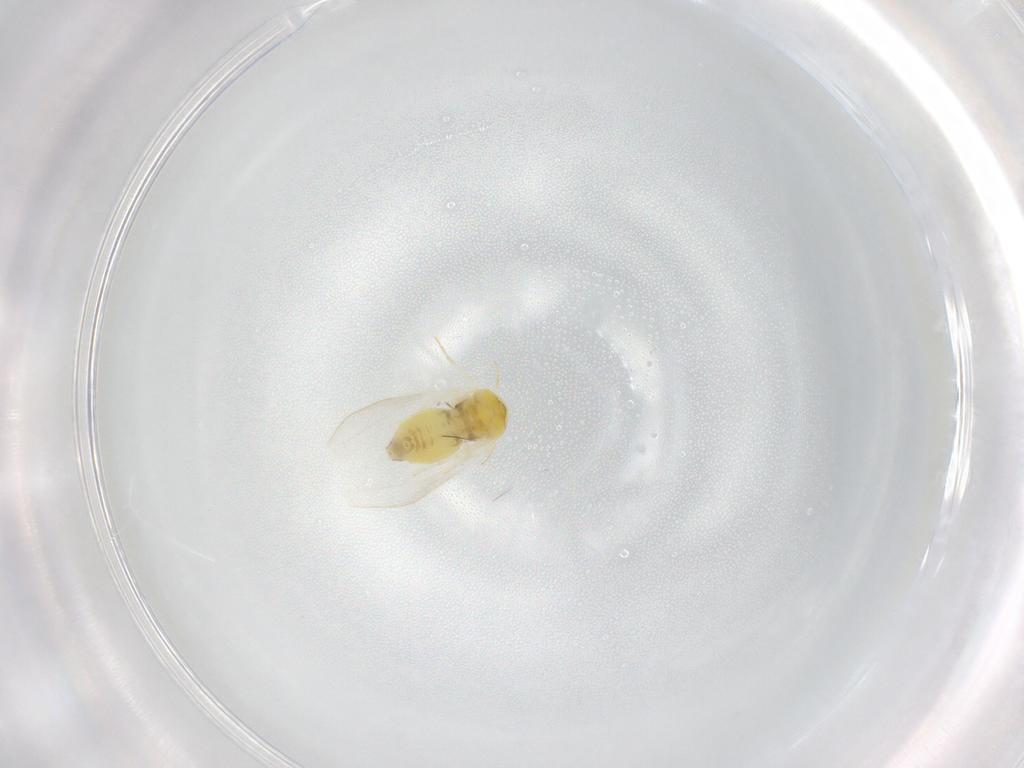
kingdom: Animalia
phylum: Arthropoda
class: Insecta
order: Hemiptera
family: Aleyrodidae
